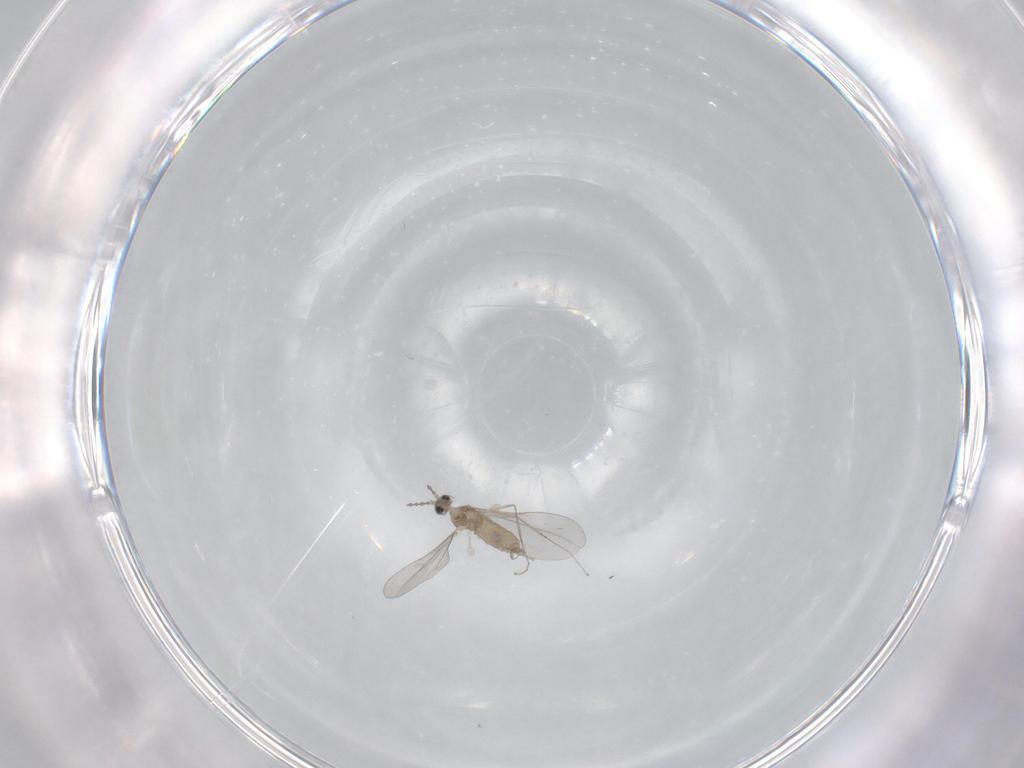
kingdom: Animalia
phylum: Arthropoda
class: Insecta
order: Diptera
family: Cecidomyiidae
